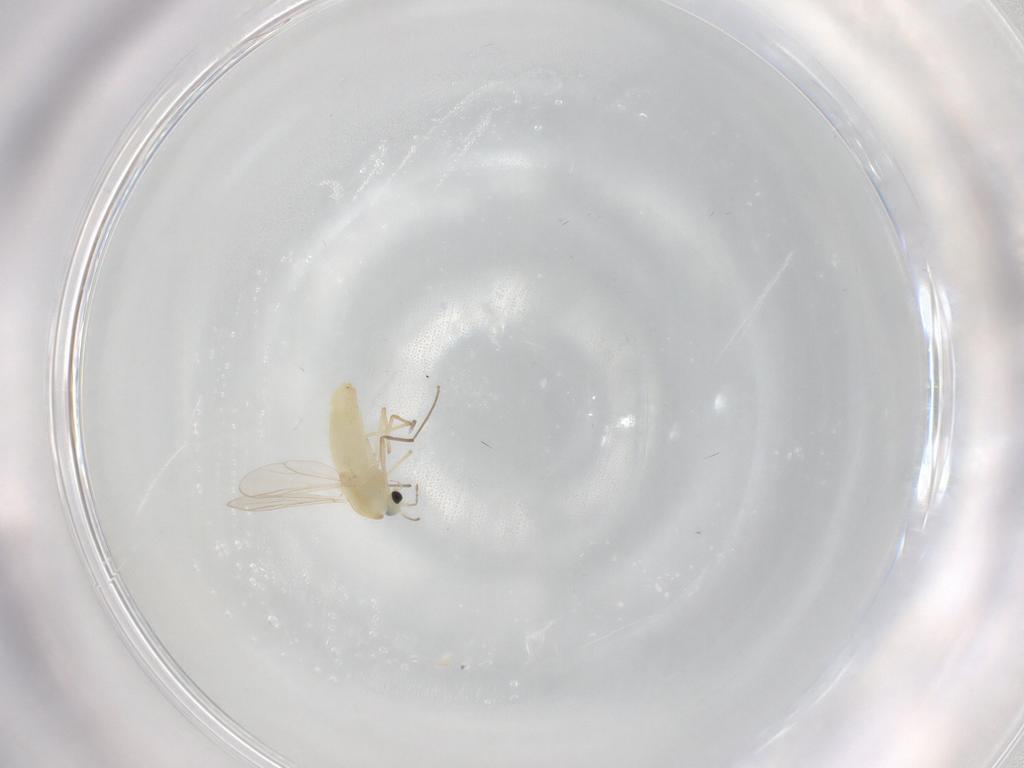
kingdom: Animalia
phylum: Arthropoda
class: Insecta
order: Diptera
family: Chironomidae
